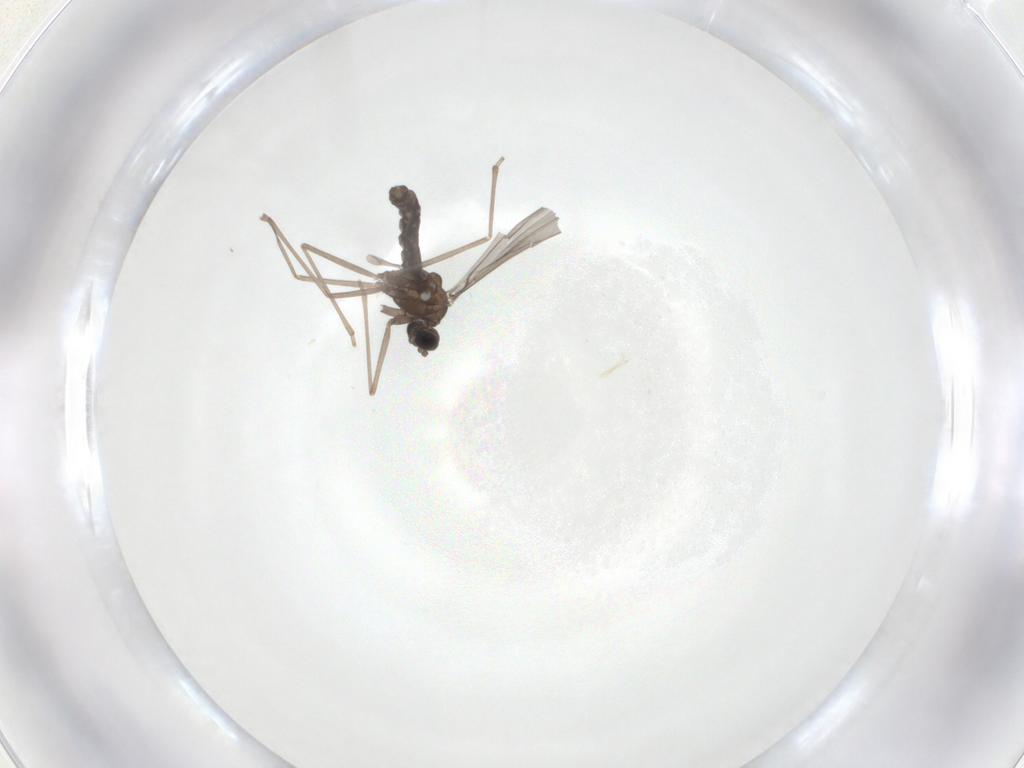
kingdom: Animalia
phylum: Arthropoda
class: Insecta
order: Diptera
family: Cecidomyiidae
